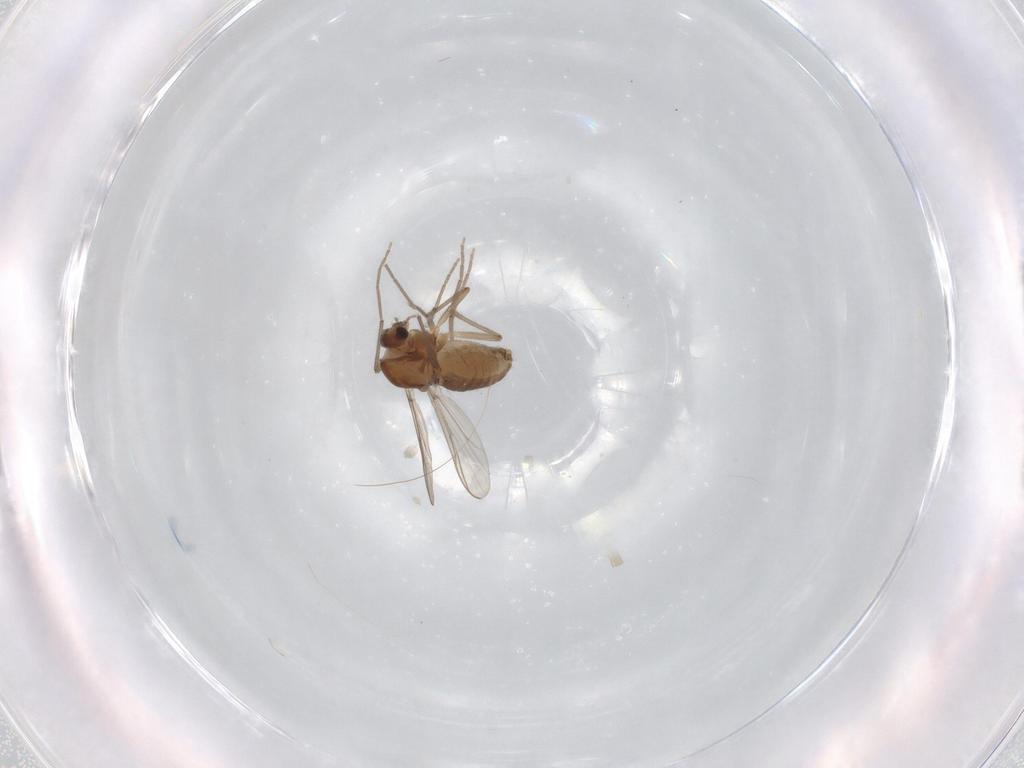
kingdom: Animalia
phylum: Arthropoda
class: Insecta
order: Diptera
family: Chironomidae
